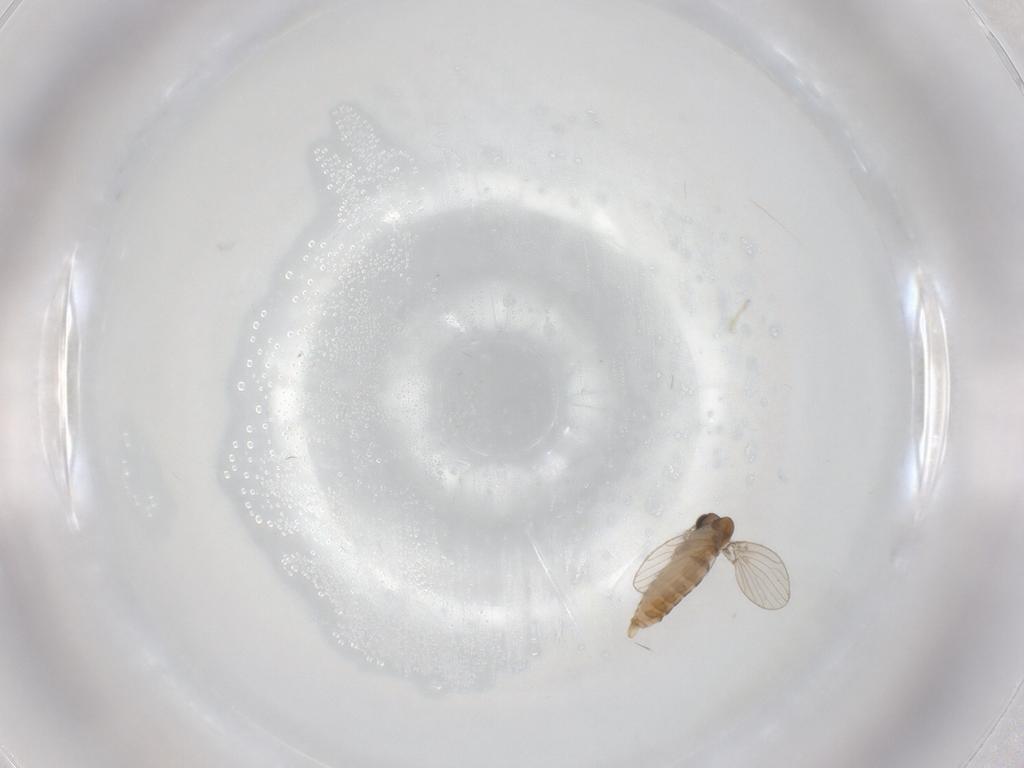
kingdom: Animalia
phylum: Arthropoda
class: Insecta
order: Diptera
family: Psychodidae
